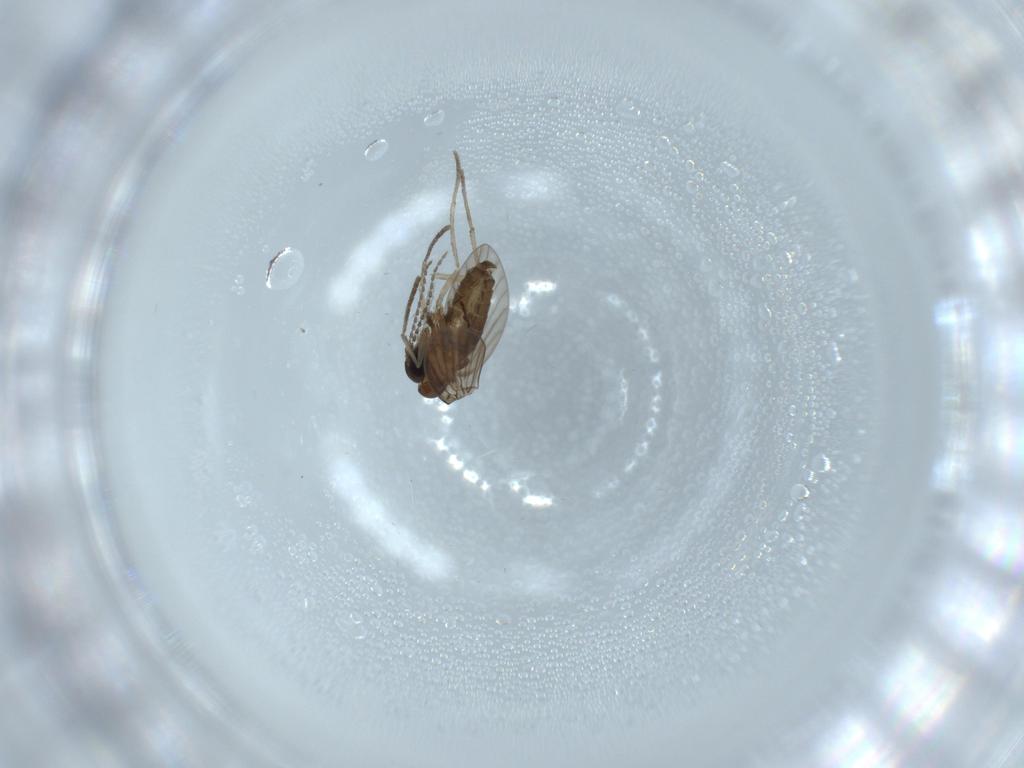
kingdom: Animalia
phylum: Arthropoda
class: Insecta
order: Diptera
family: Psychodidae
